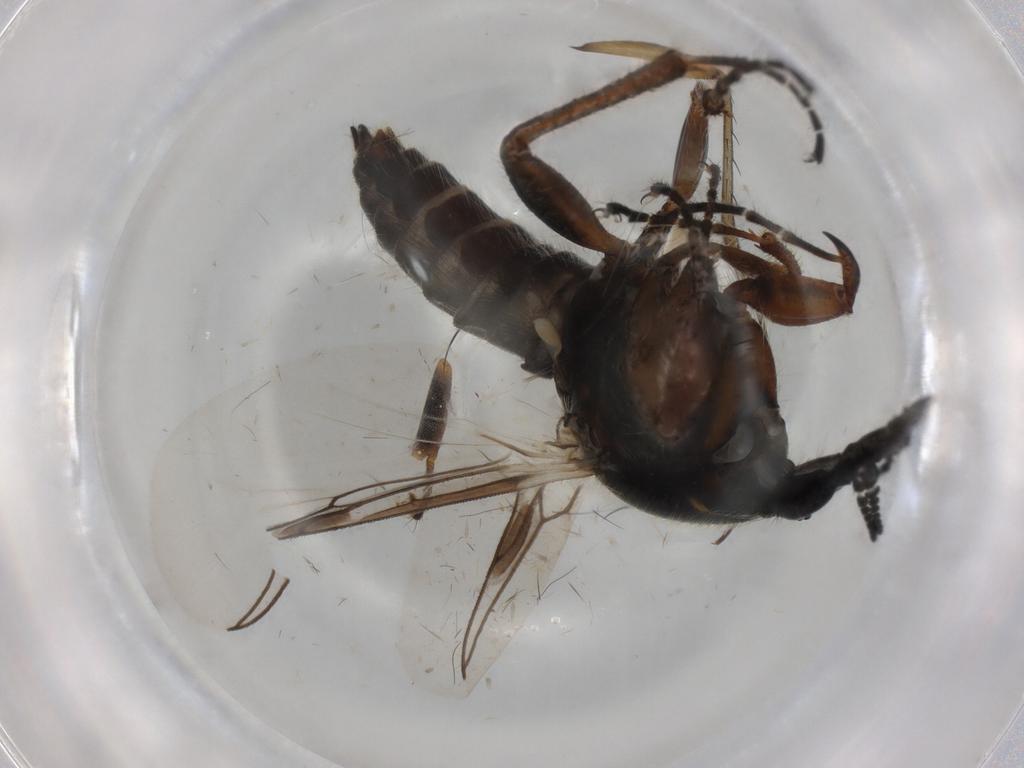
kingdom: Animalia
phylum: Arthropoda
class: Insecta
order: Diptera
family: Bibionidae
